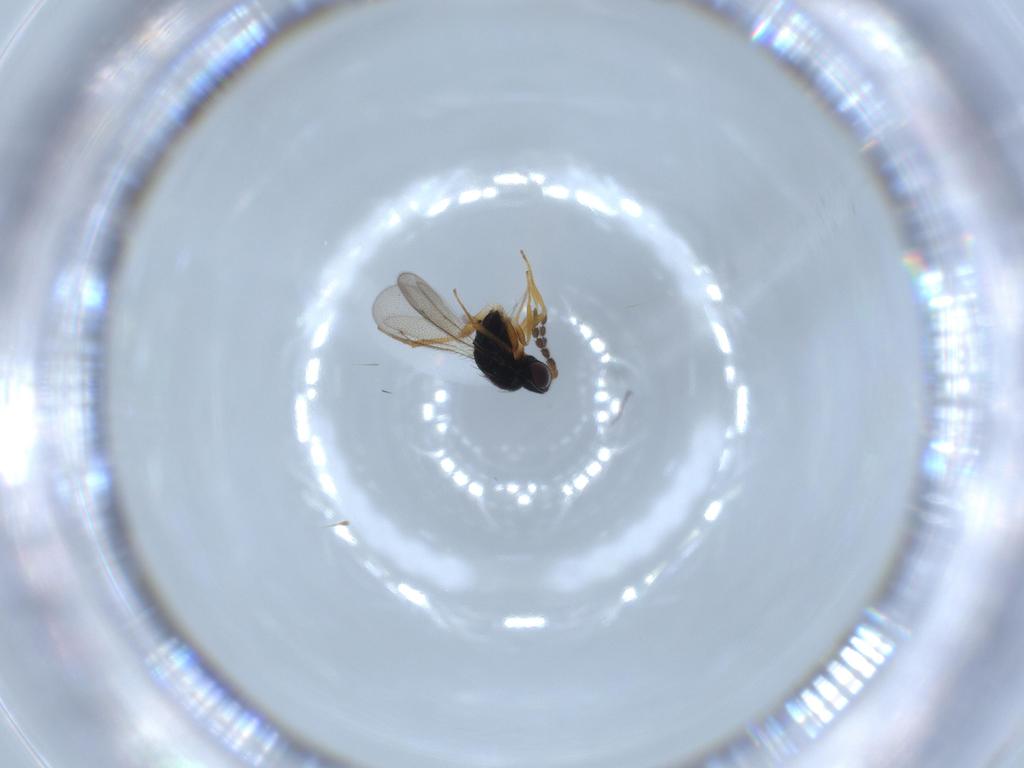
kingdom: Animalia
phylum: Arthropoda
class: Insecta
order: Hymenoptera
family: Eulophidae
